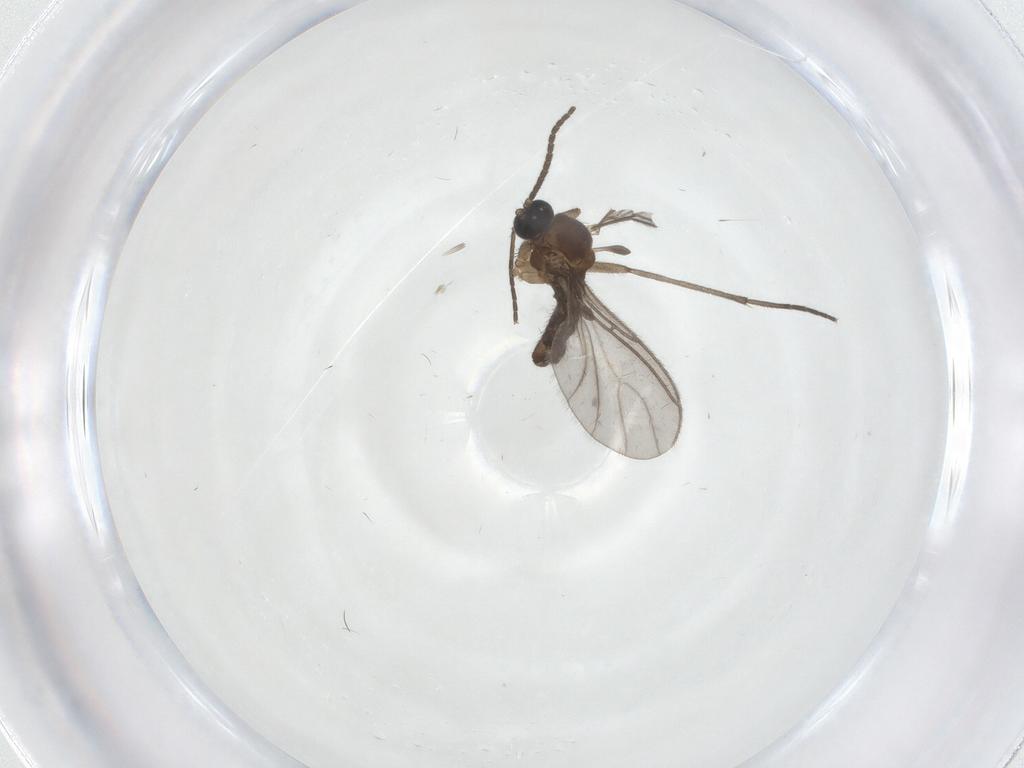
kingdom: Animalia
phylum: Arthropoda
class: Insecta
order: Diptera
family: Sciaridae
